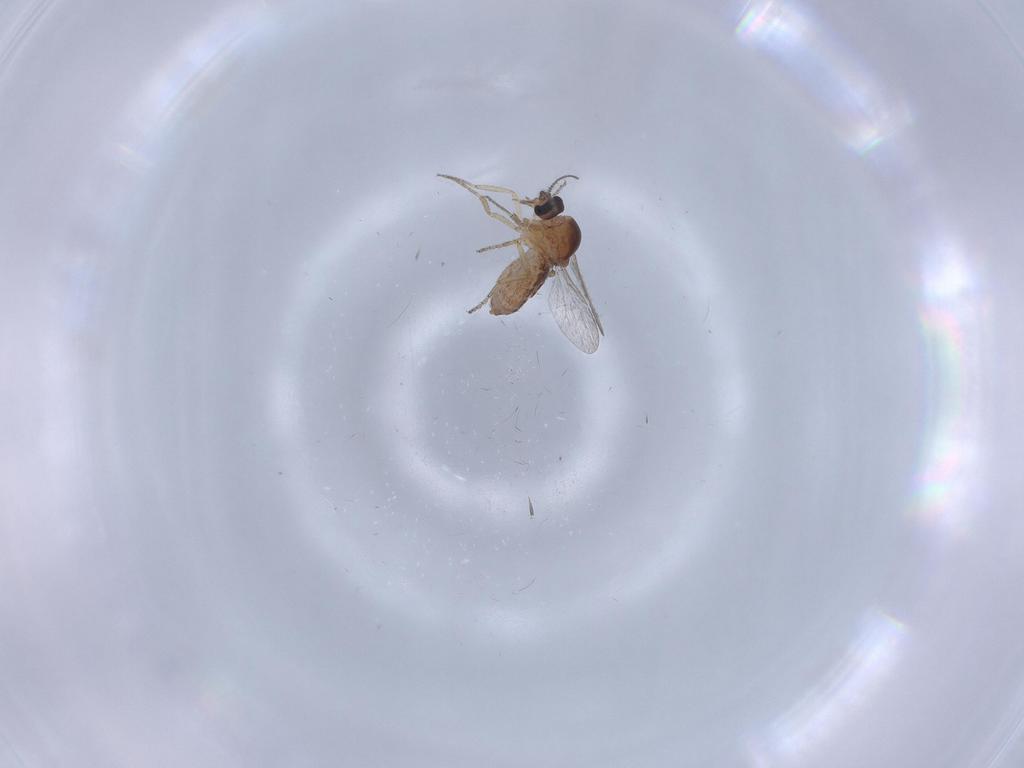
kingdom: Animalia
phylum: Arthropoda
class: Insecta
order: Diptera
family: Ceratopogonidae
